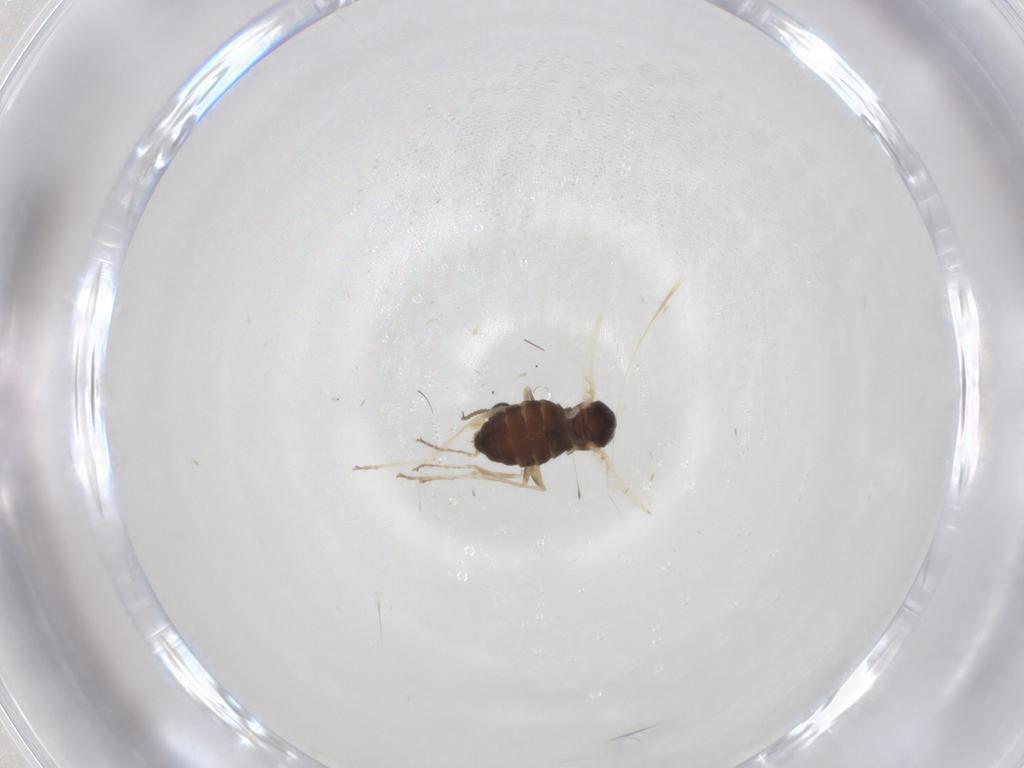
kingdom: Animalia
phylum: Arthropoda
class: Insecta
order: Diptera
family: Cecidomyiidae
